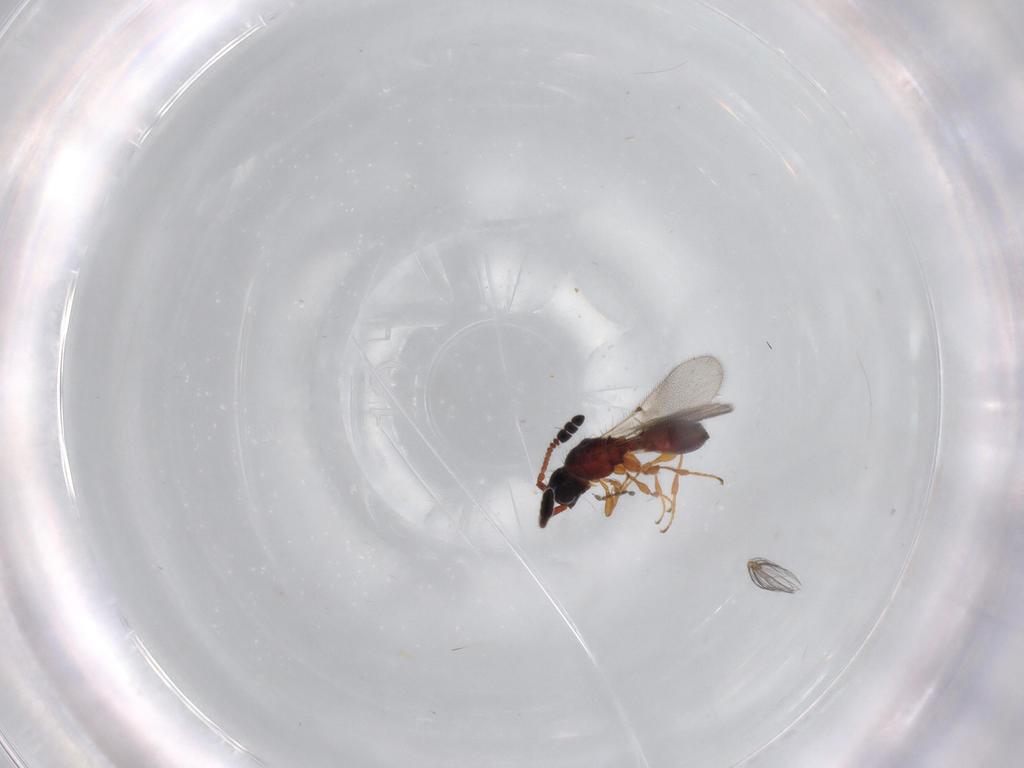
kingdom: Animalia
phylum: Arthropoda
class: Insecta
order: Hymenoptera
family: Diapriidae
